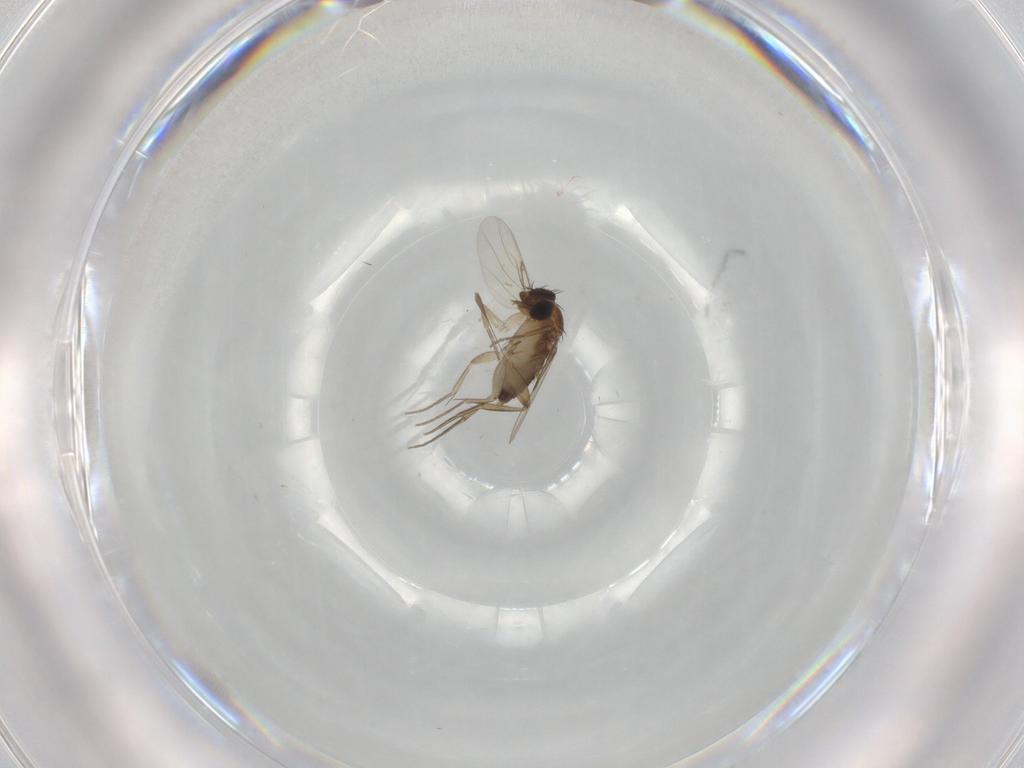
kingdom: Animalia
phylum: Arthropoda
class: Insecta
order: Diptera
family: Phoridae
